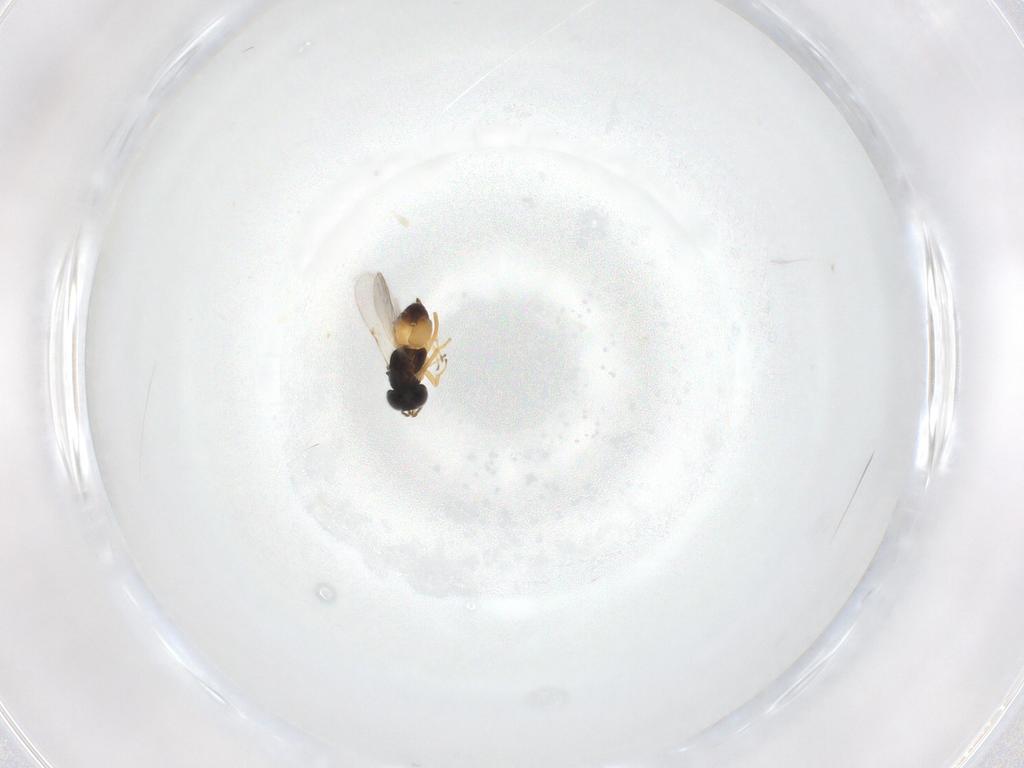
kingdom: Animalia
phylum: Arthropoda
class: Insecta
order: Hymenoptera
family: Encyrtidae
